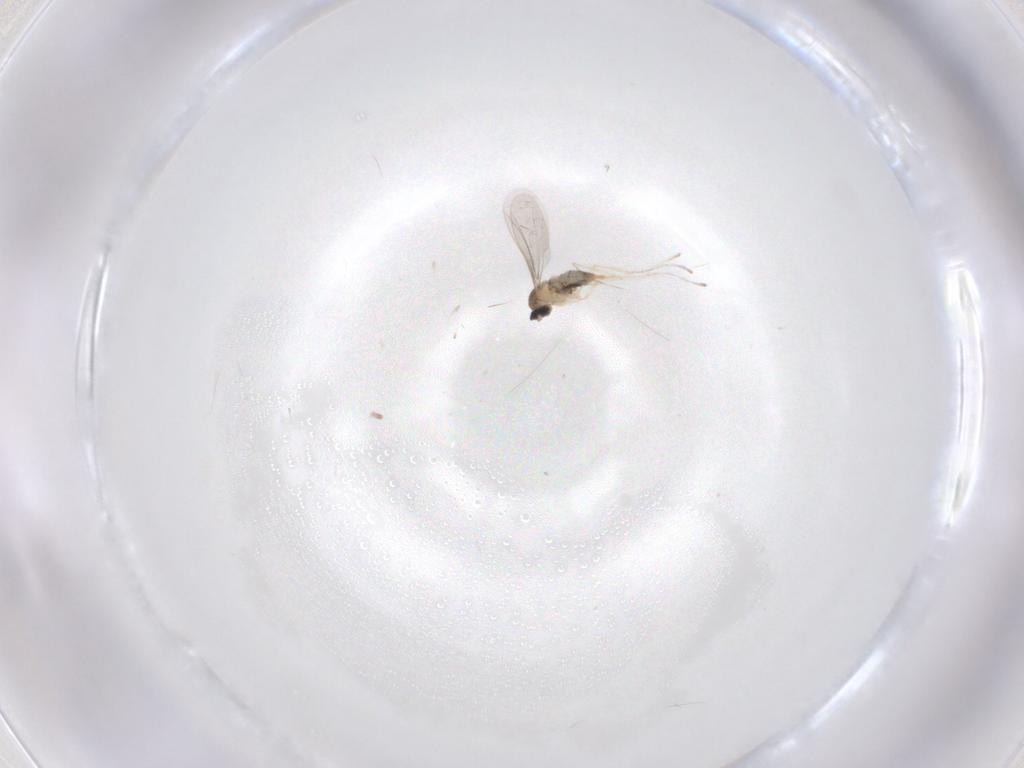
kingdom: Animalia
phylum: Arthropoda
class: Insecta
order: Diptera
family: Cecidomyiidae
